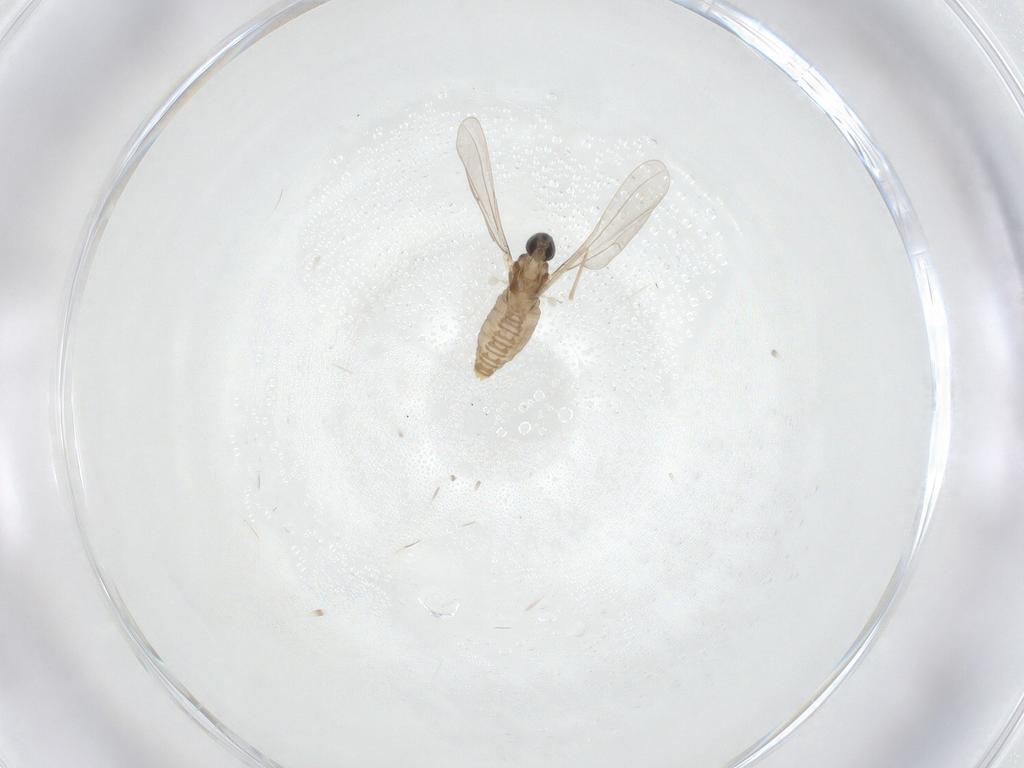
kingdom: Animalia
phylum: Arthropoda
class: Insecta
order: Diptera
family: Cecidomyiidae
